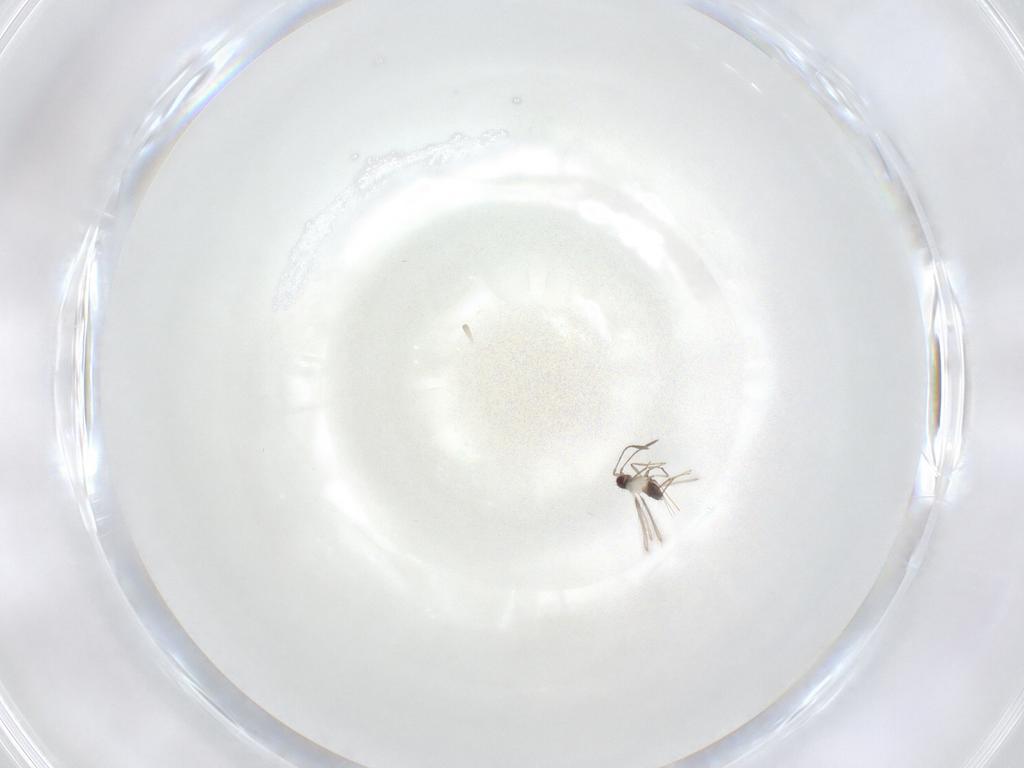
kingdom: Animalia
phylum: Arthropoda
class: Insecta
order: Hymenoptera
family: Mymaridae
